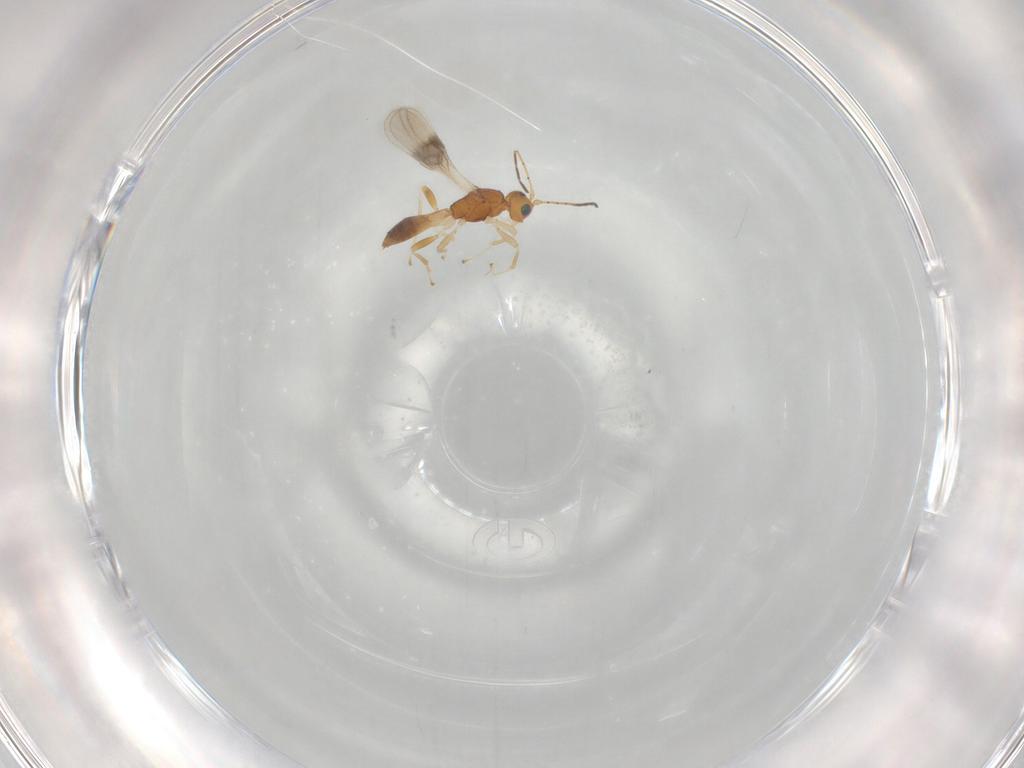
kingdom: Animalia
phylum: Arthropoda
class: Insecta
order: Hymenoptera
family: Braconidae
